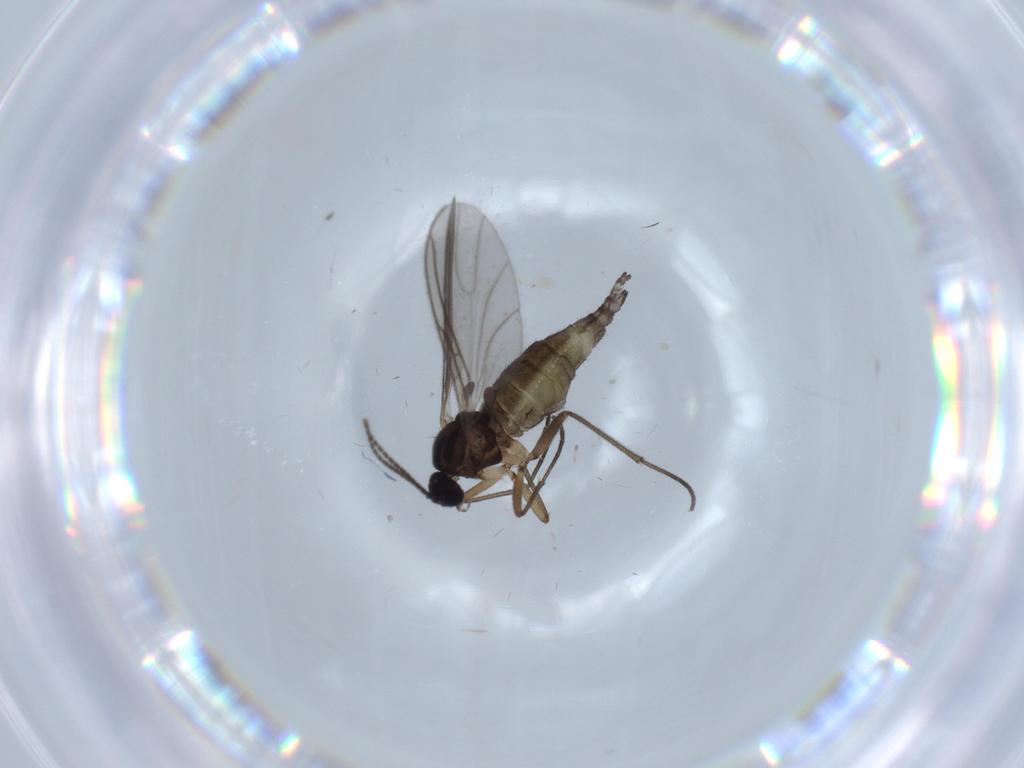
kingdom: Animalia
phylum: Arthropoda
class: Insecta
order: Diptera
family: Sciaridae
